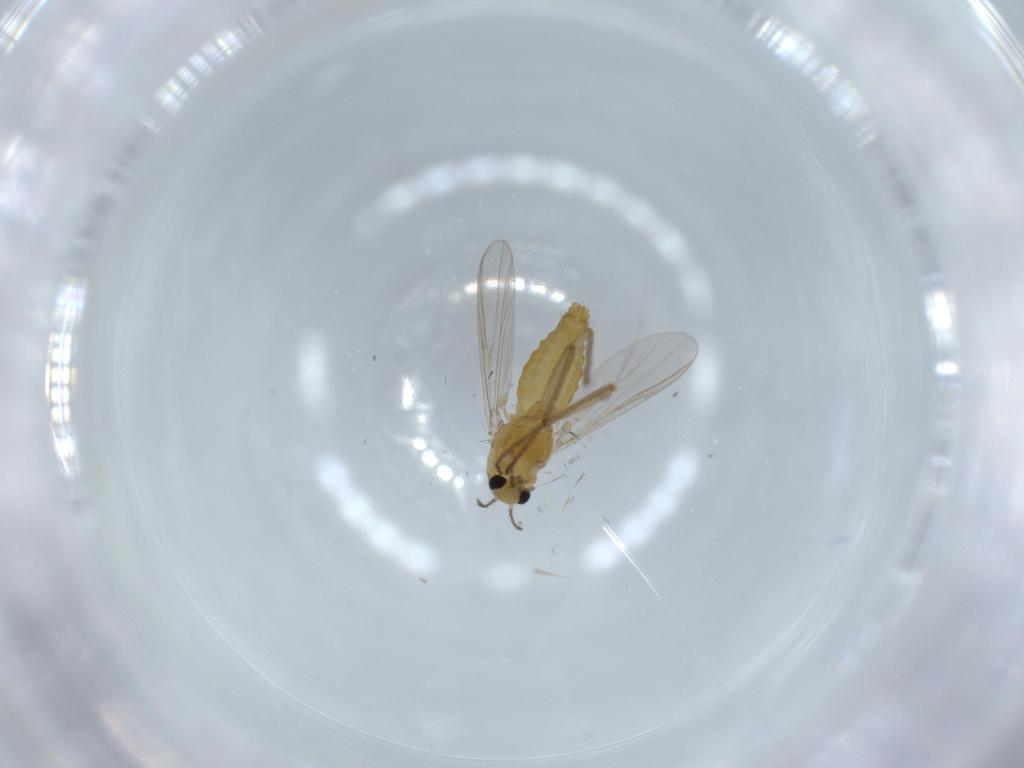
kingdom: Animalia
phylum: Arthropoda
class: Insecta
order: Diptera
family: Chironomidae
